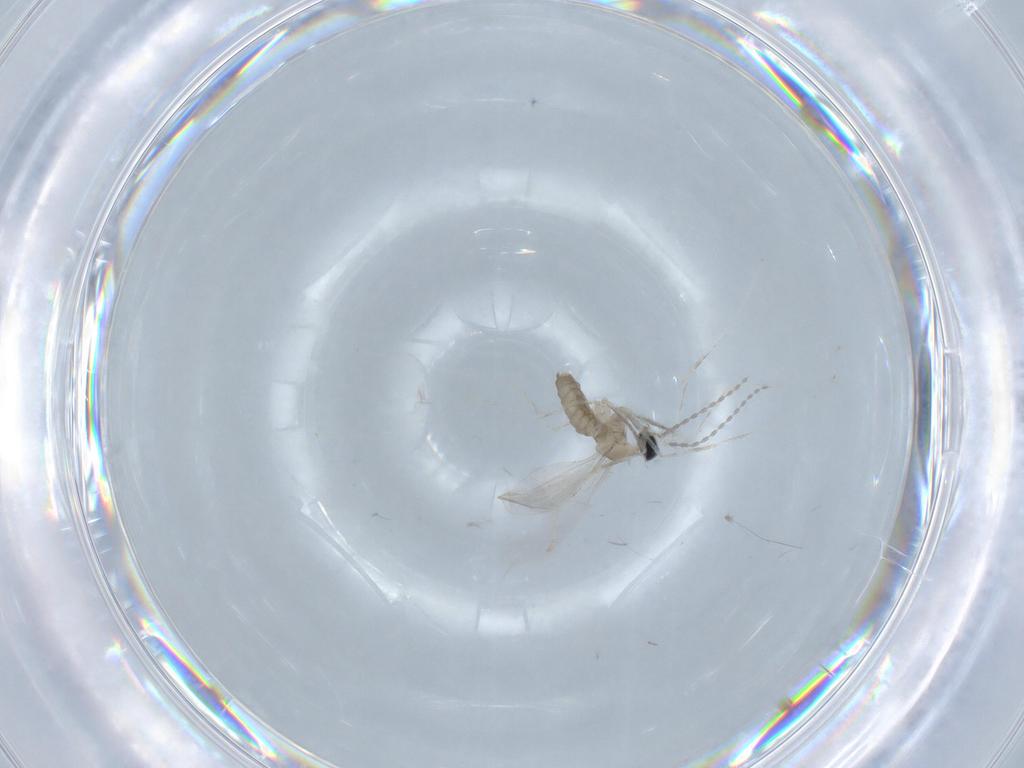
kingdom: Animalia
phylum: Arthropoda
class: Insecta
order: Diptera
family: Cecidomyiidae
